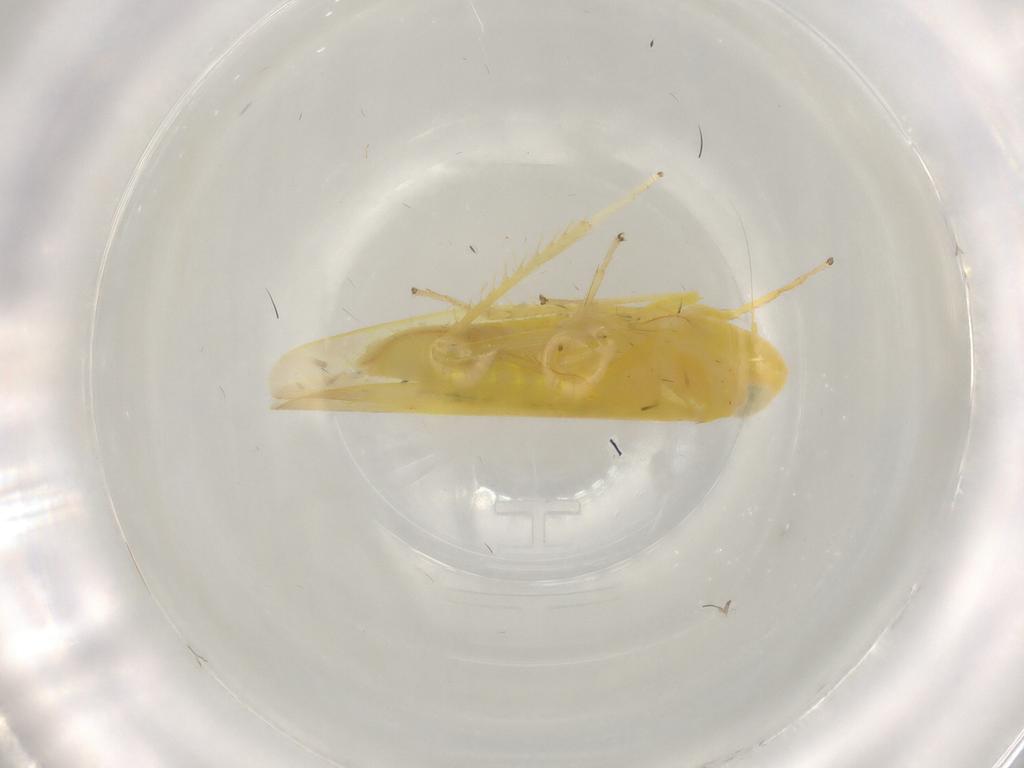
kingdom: Animalia
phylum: Arthropoda
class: Insecta
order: Hemiptera
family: Cicadellidae
